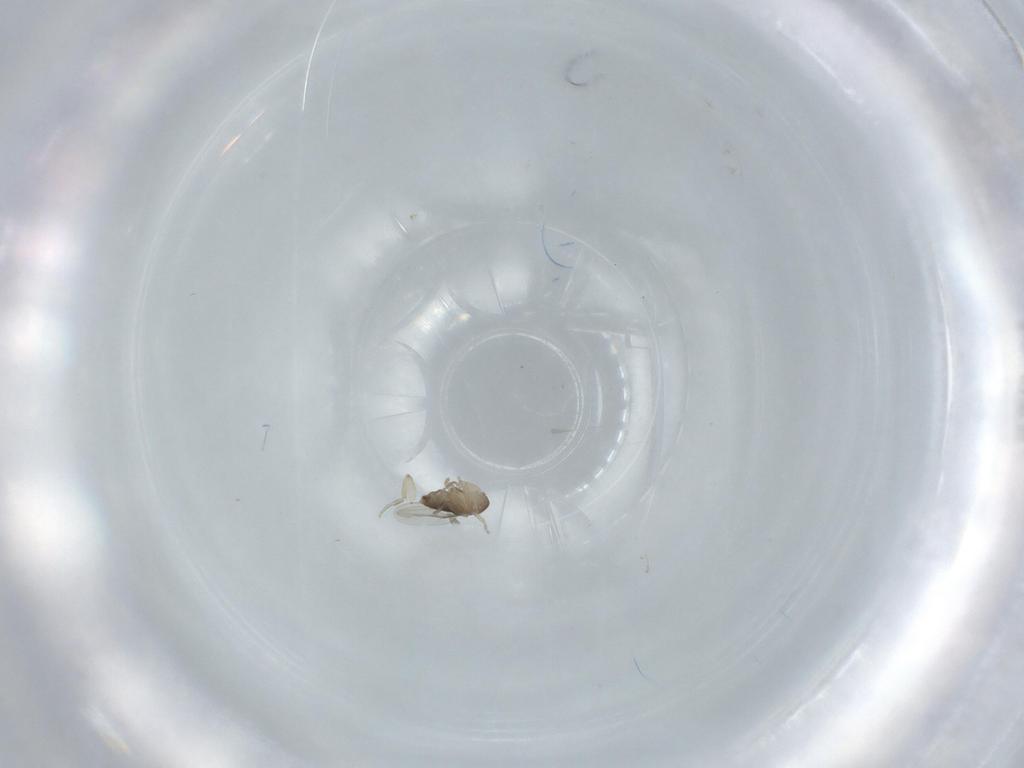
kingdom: Animalia
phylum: Arthropoda
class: Insecta
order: Diptera
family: Phoridae
